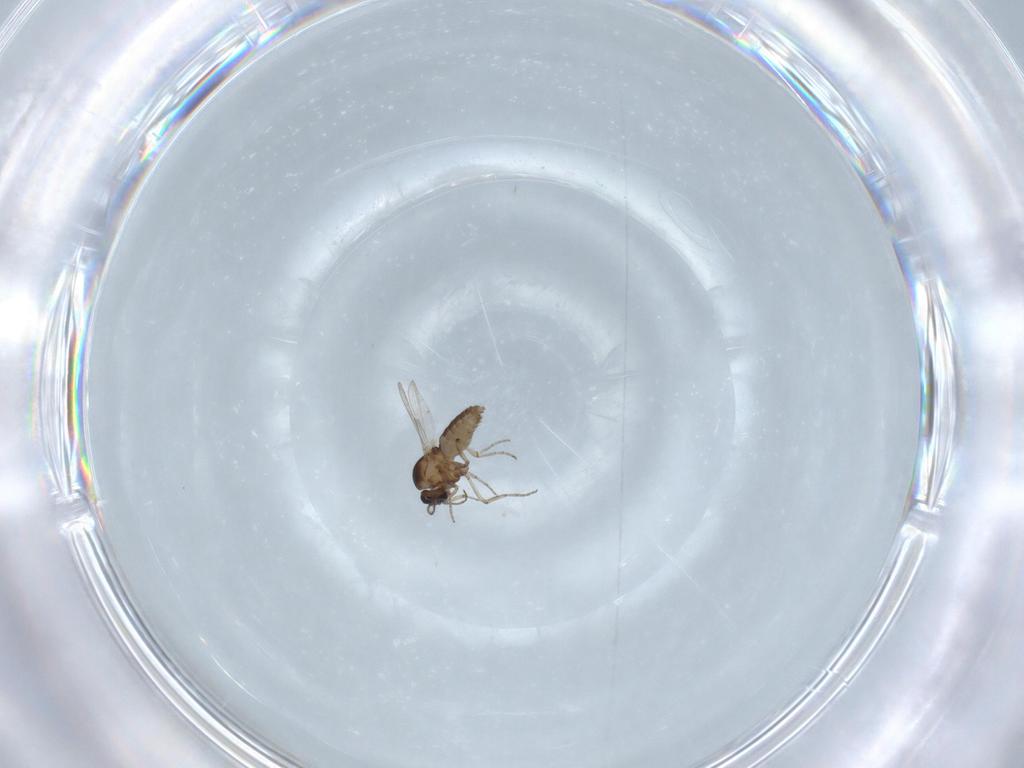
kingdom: Animalia
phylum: Arthropoda
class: Insecta
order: Diptera
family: Ceratopogonidae
